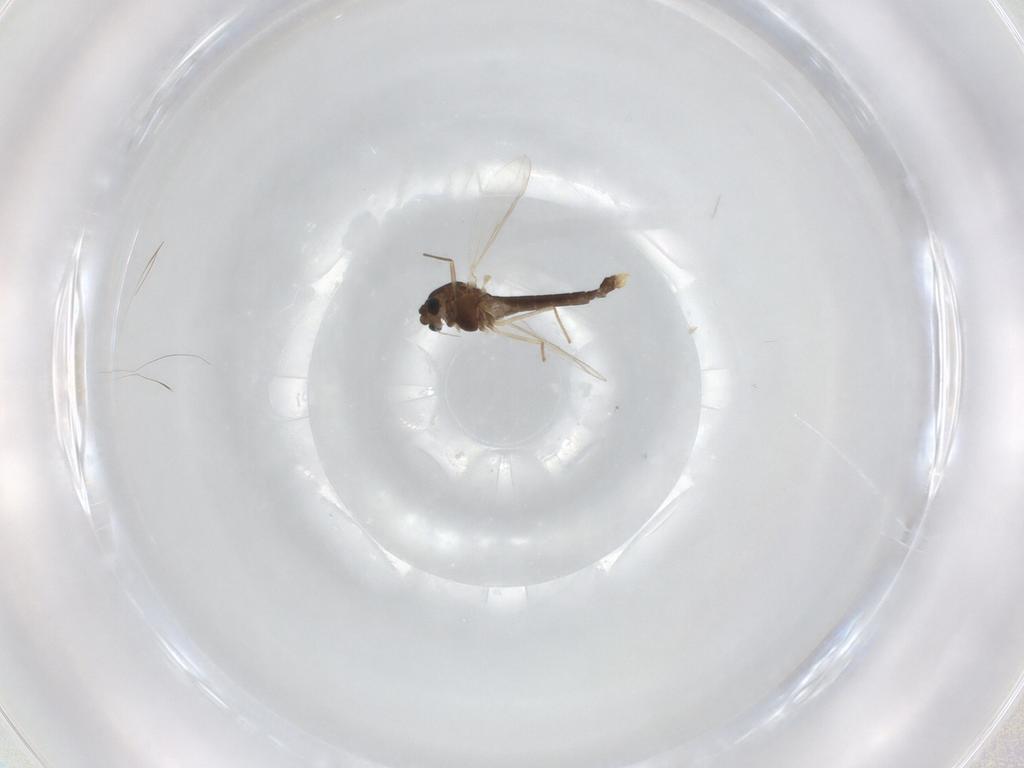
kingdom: Animalia
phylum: Arthropoda
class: Insecta
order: Diptera
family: Chironomidae
